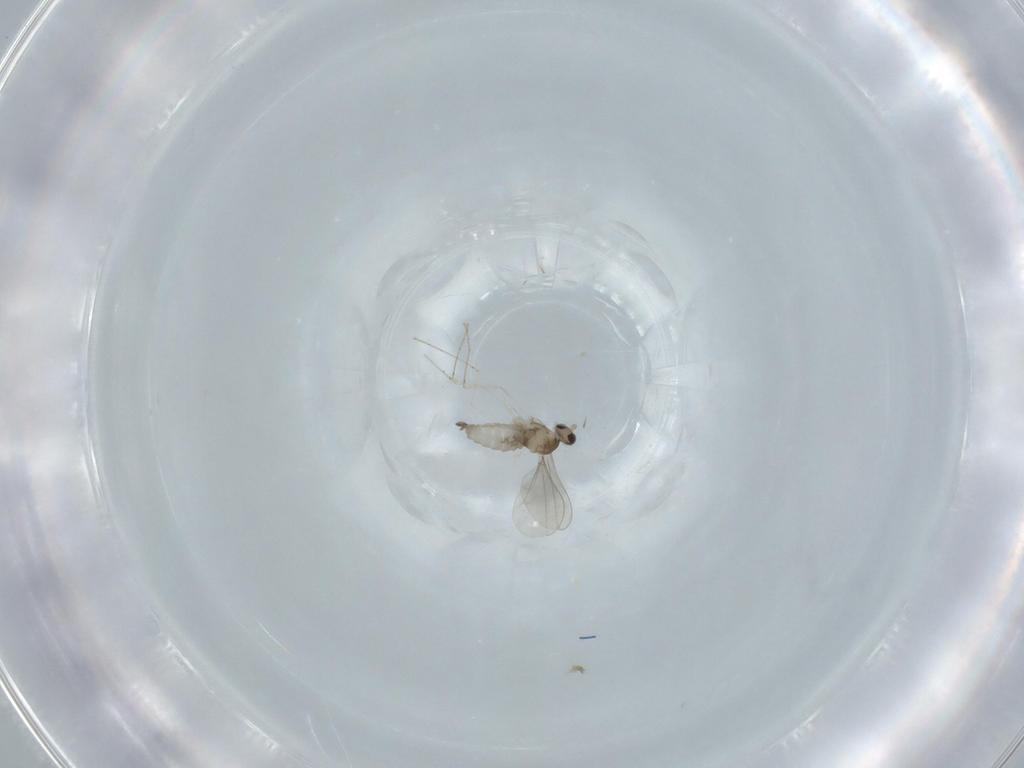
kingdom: Animalia
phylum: Arthropoda
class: Insecta
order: Diptera
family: Cecidomyiidae
